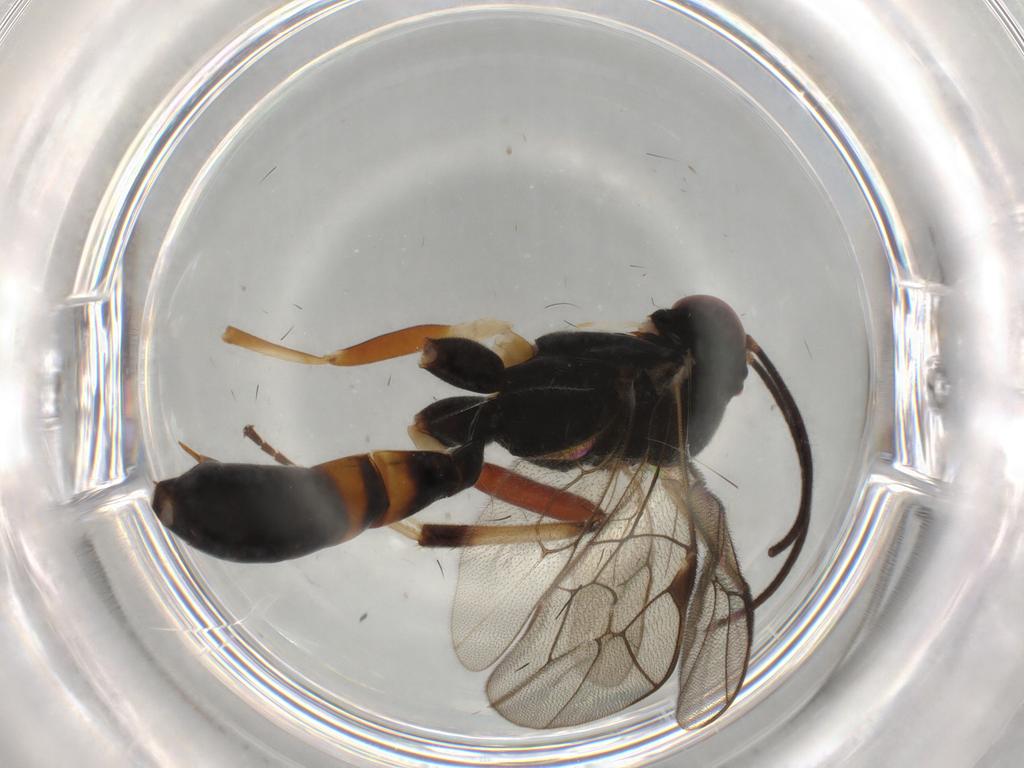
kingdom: Animalia
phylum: Arthropoda
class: Insecta
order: Hymenoptera
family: Ichneumonidae
